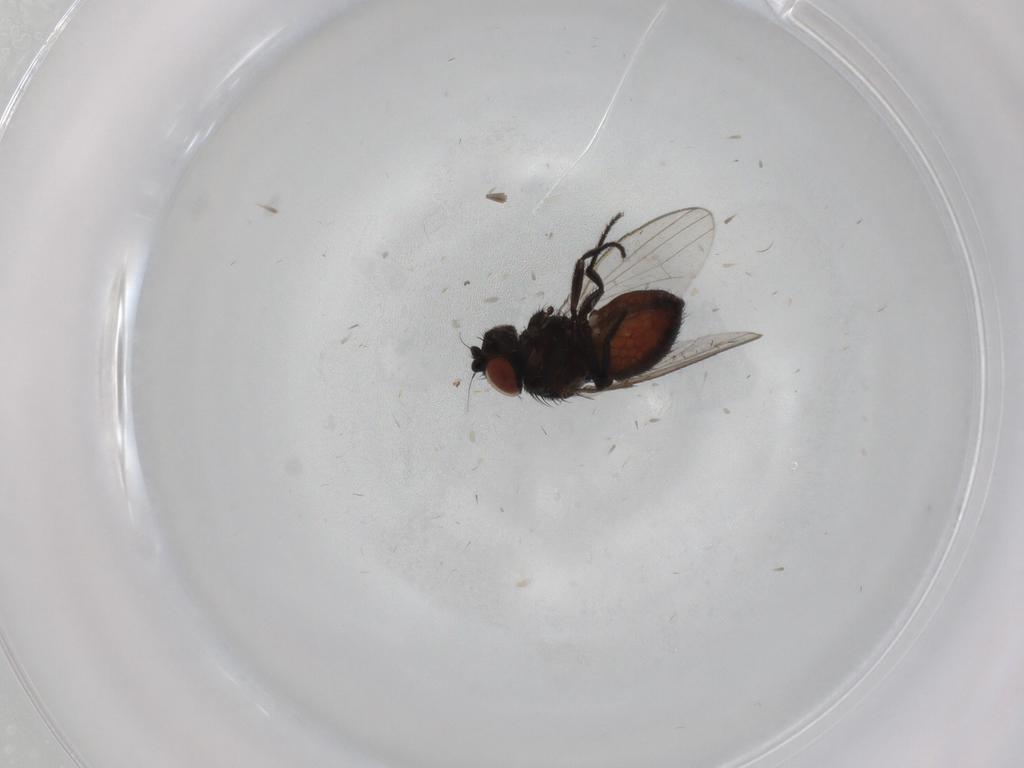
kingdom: Animalia
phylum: Arthropoda
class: Insecta
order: Diptera
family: Milichiidae
